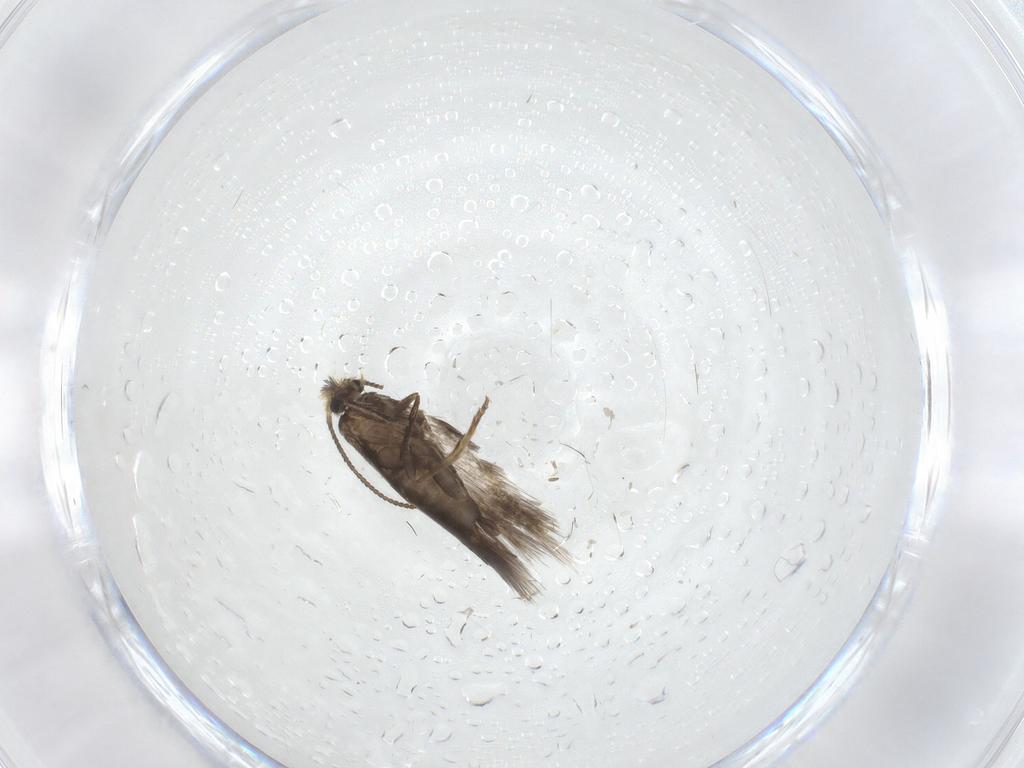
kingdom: Animalia
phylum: Arthropoda
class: Insecta
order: Lepidoptera
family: Nepticulidae
